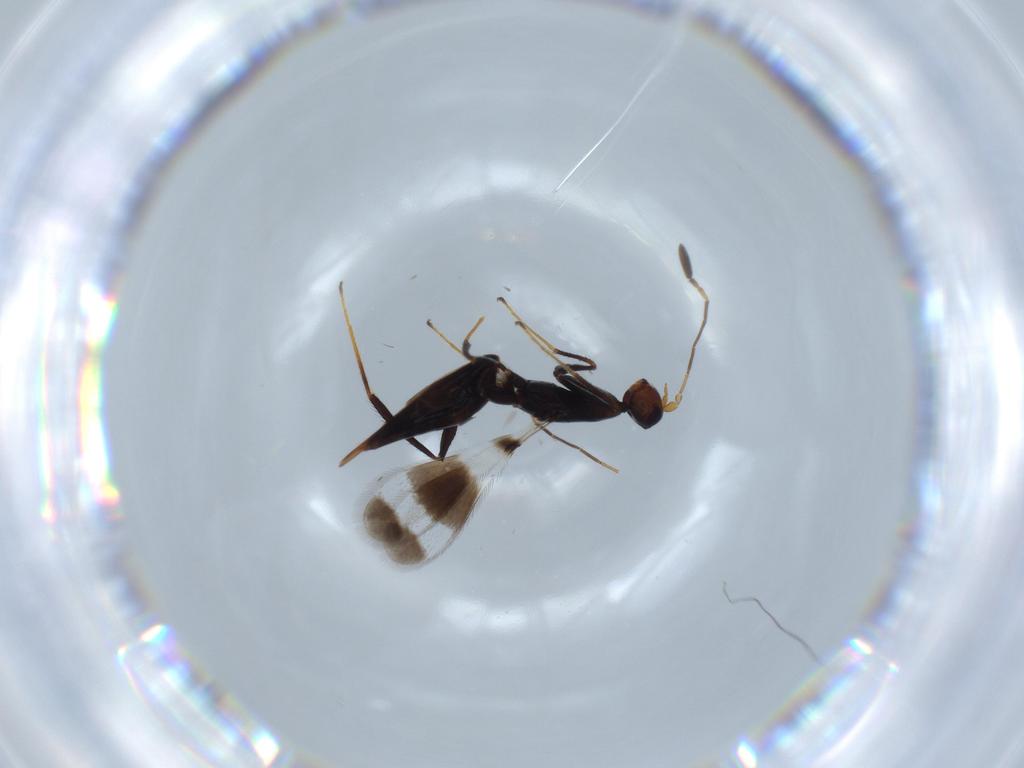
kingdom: Animalia
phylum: Arthropoda
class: Insecta
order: Hymenoptera
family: Mymaridae
